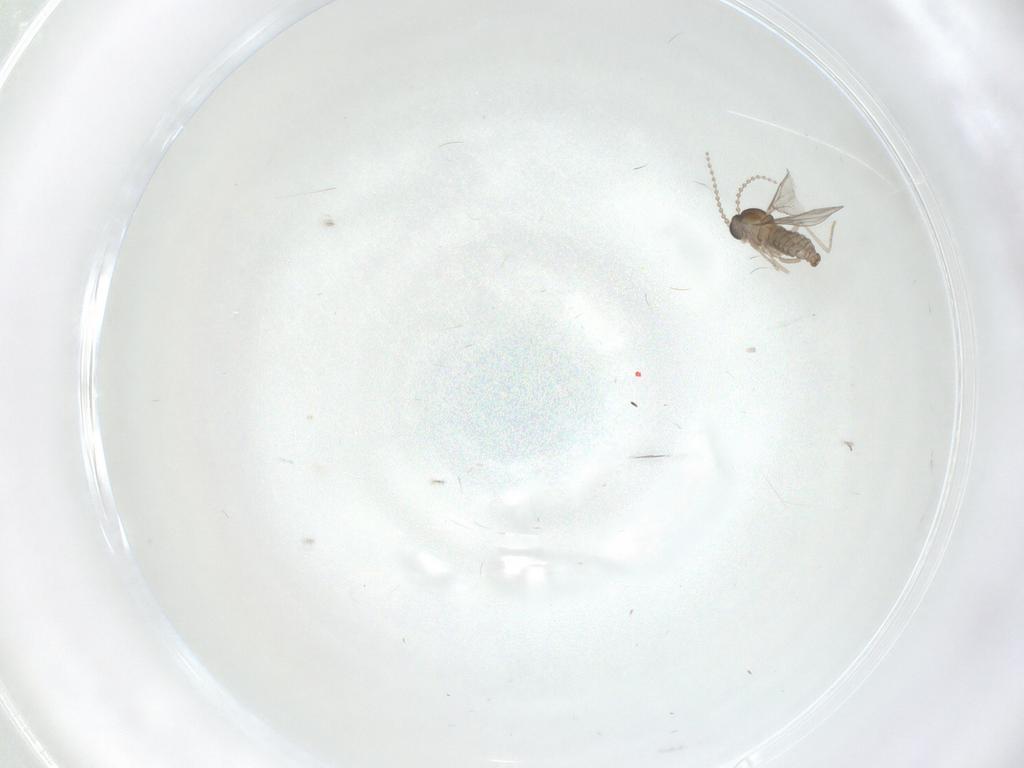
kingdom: Animalia
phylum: Arthropoda
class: Insecta
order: Diptera
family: Cecidomyiidae
